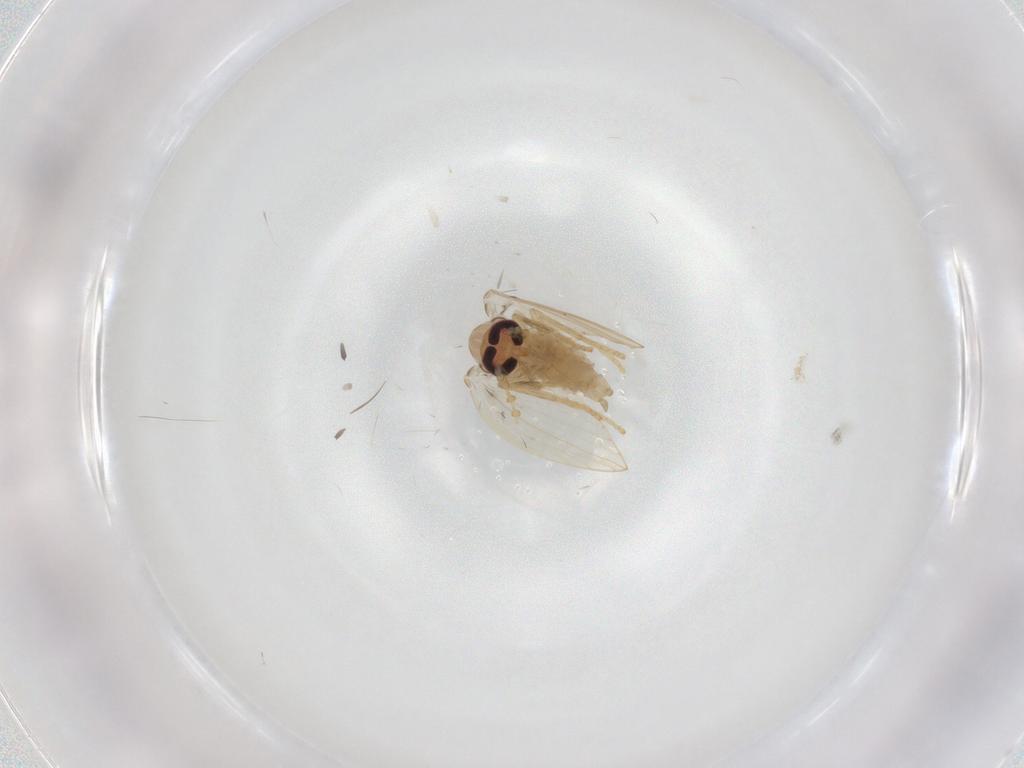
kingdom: Animalia
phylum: Arthropoda
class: Insecta
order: Diptera
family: Psychodidae
